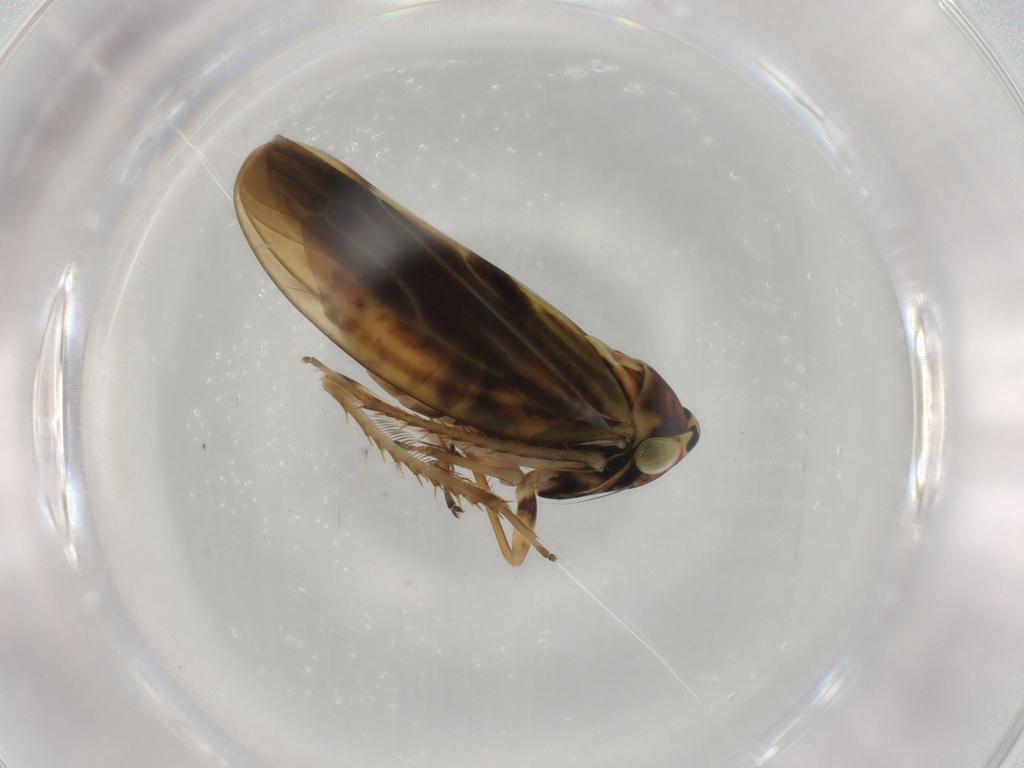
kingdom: Animalia
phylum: Arthropoda
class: Insecta
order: Hemiptera
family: Cicadellidae
